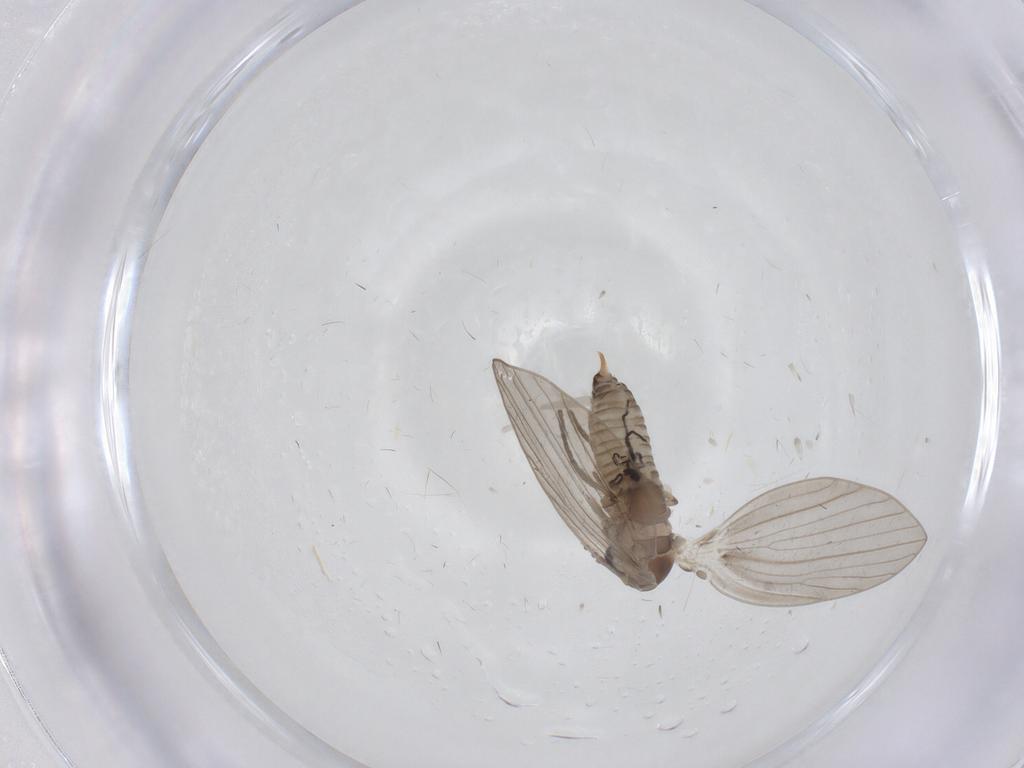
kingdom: Animalia
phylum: Arthropoda
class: Insecta
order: Diptera
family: Psychodidae
